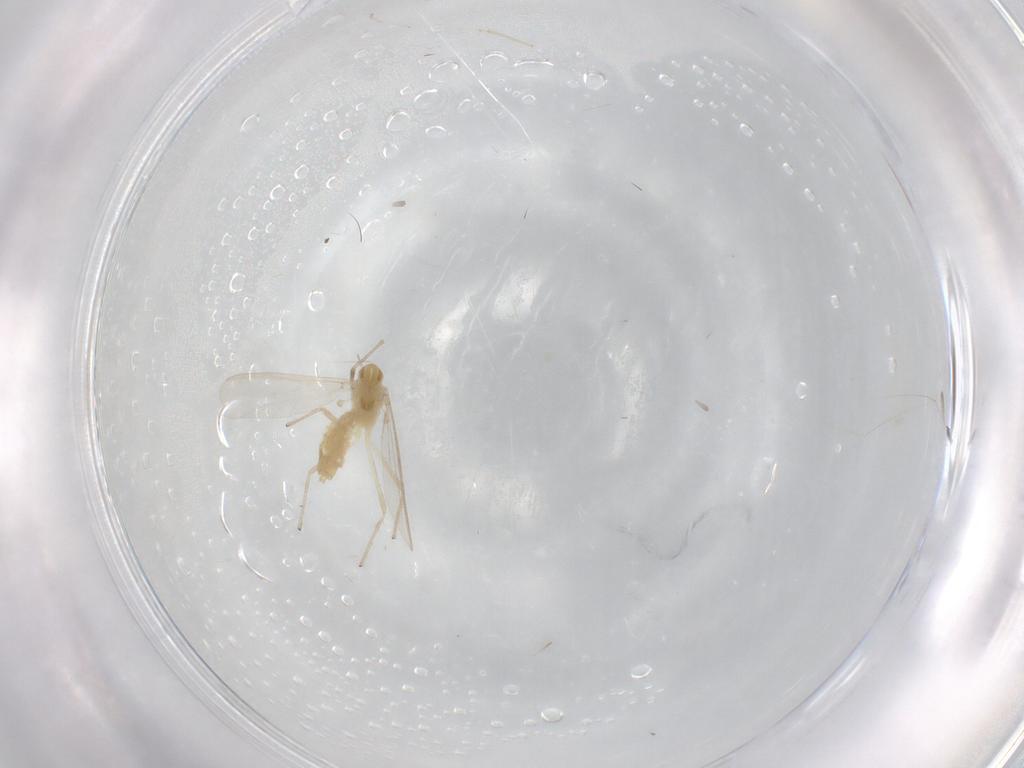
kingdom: Animalia
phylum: Arthropoda
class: Insecta
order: Diptera
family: Chironomidae
